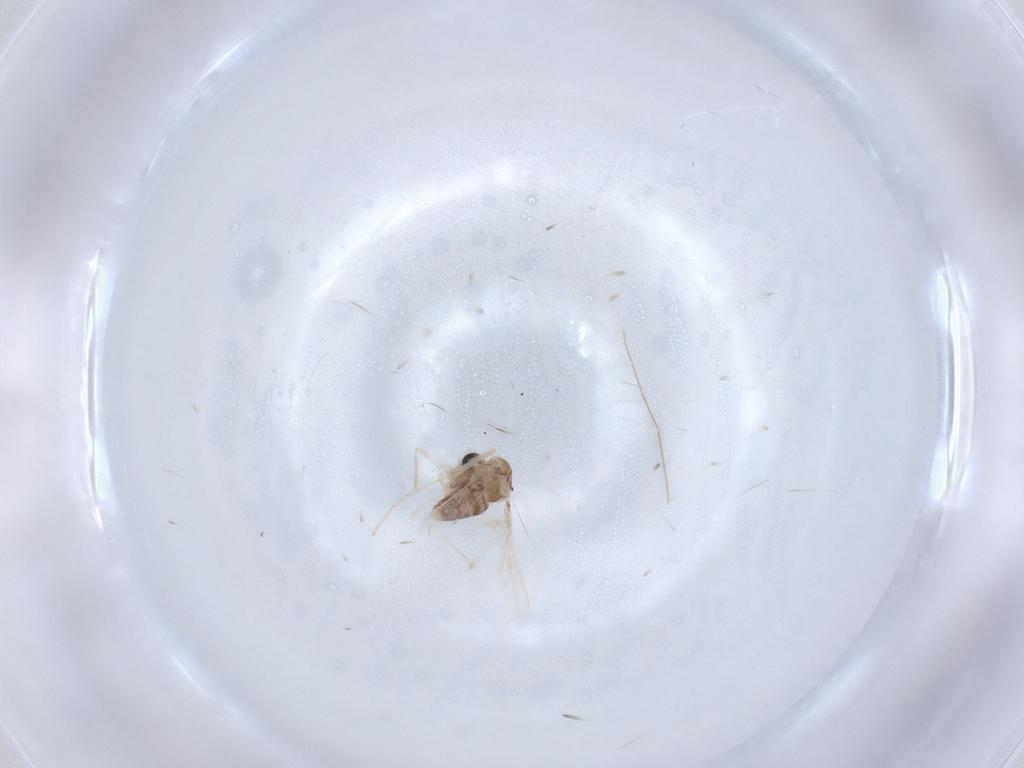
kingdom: Animalia
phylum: Arthropoda
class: Insecta
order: Diptera
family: Chironomidae
